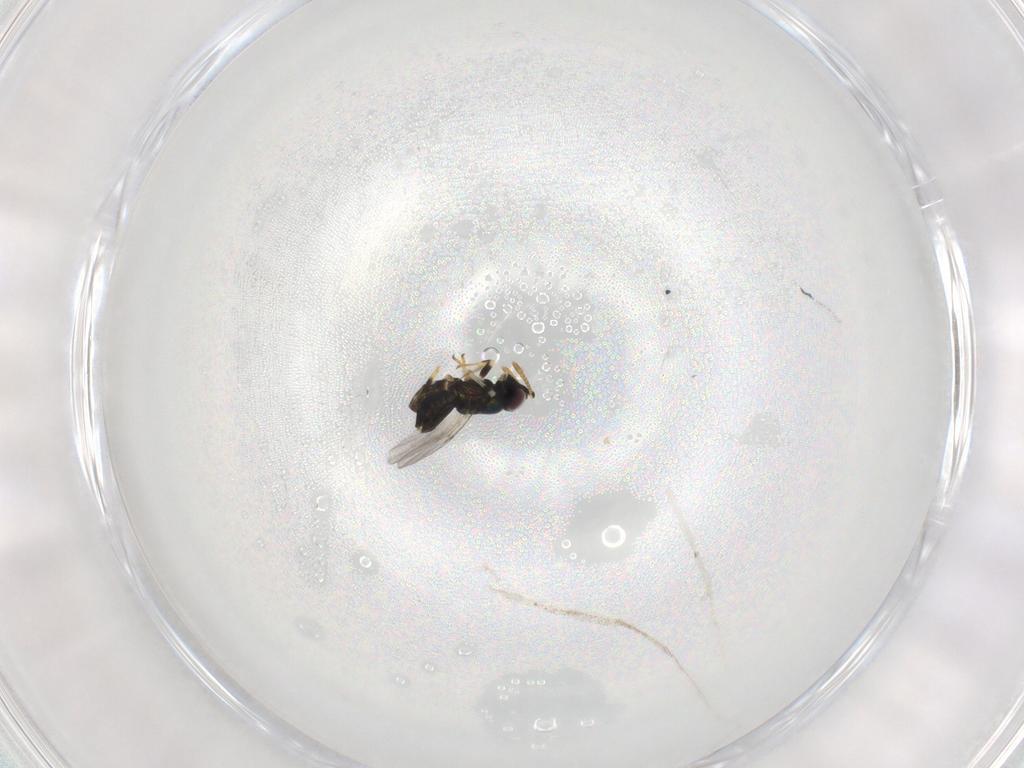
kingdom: Animalia
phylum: Arthropoda
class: Insecta
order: Hymenoptera
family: Encyrtidae
